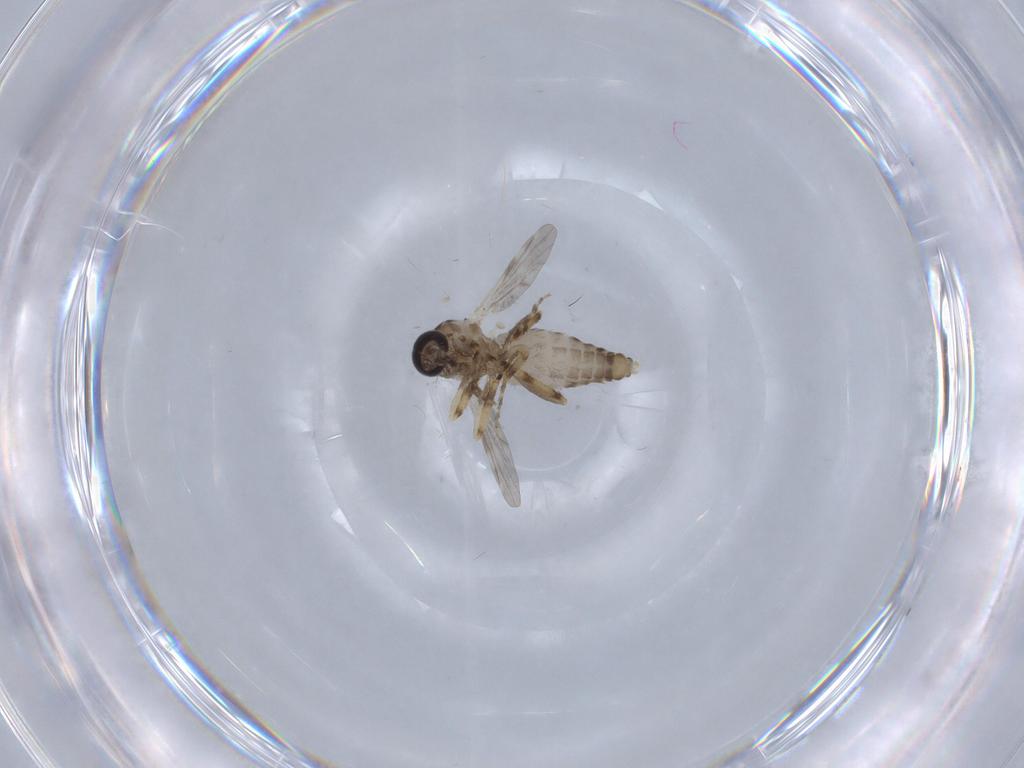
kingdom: Animalia
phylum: Arthropoda
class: Insecta
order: Diptera
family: Ceratopogonidae
